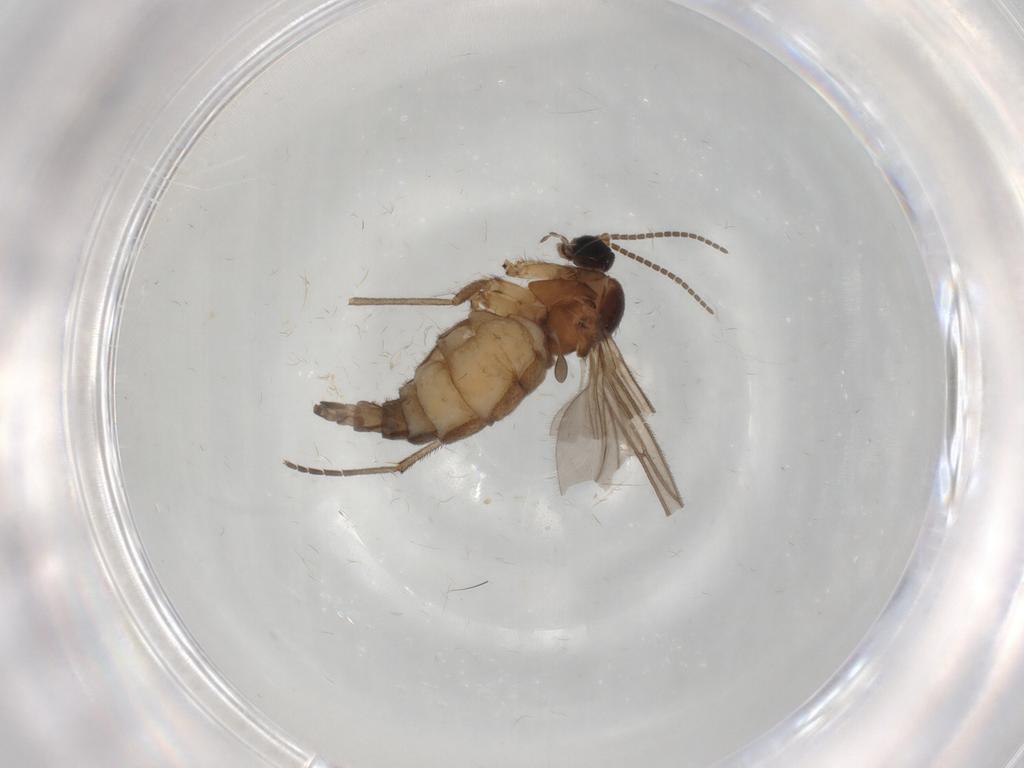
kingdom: Animalia
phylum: Arthropoda
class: Insecta
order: Diptera
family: Sciaridae
